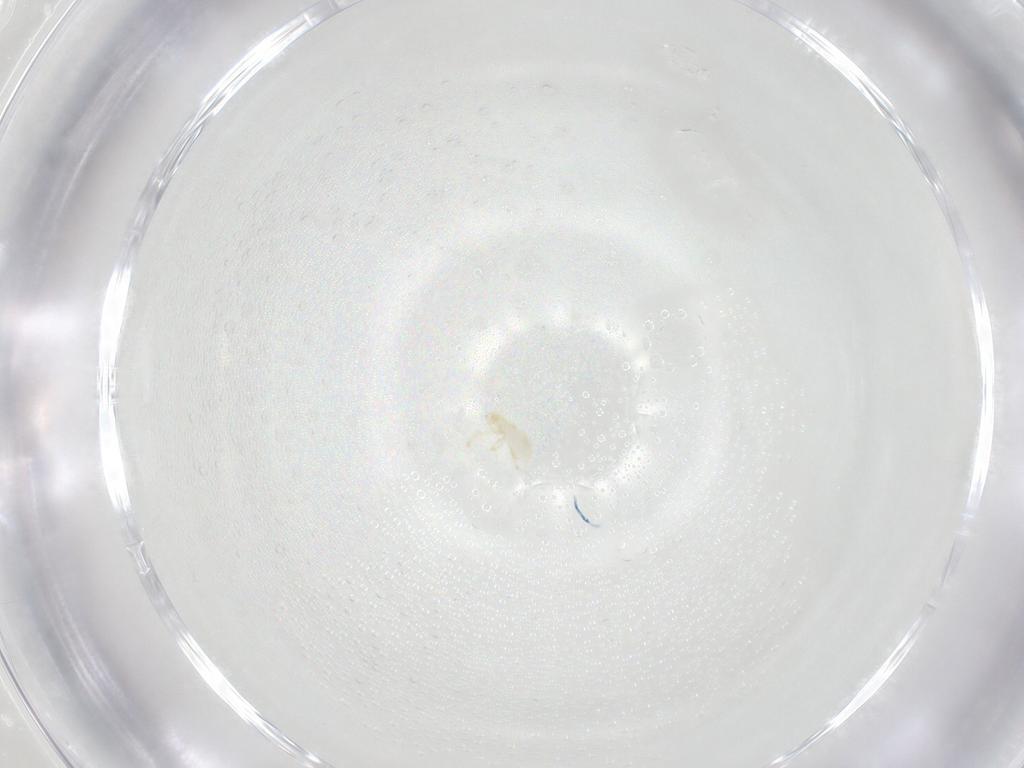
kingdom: Animalia
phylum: Arthropoda
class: Arachnida
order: Trombidiformes
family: Erythraeidae
